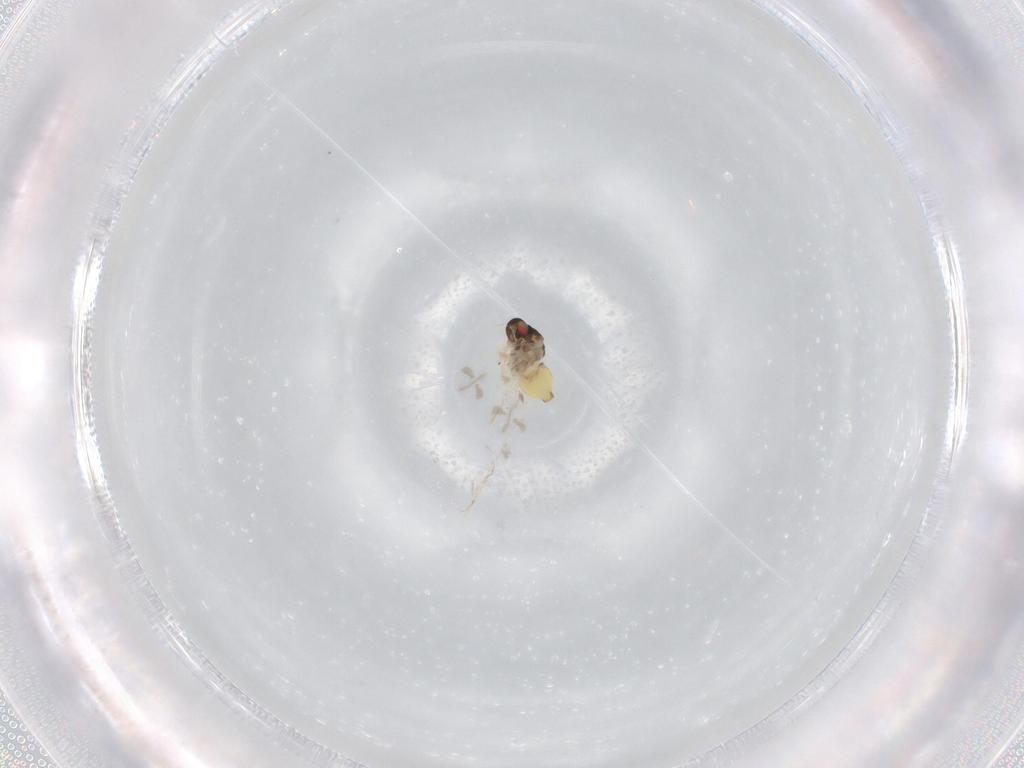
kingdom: Animalia
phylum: Arthropoda
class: Insecta
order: Hemiptera
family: Aleyrodidae
